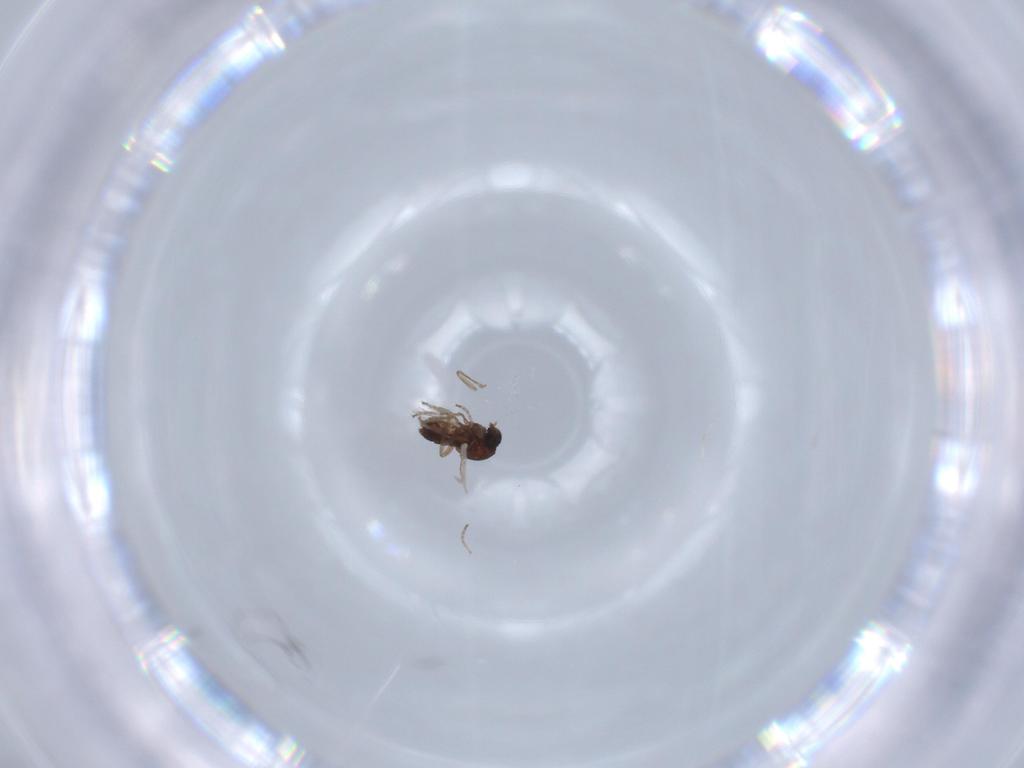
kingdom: Animalia
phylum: Arthropoda
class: Insecta
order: Diptera
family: Ceratopogonidae
